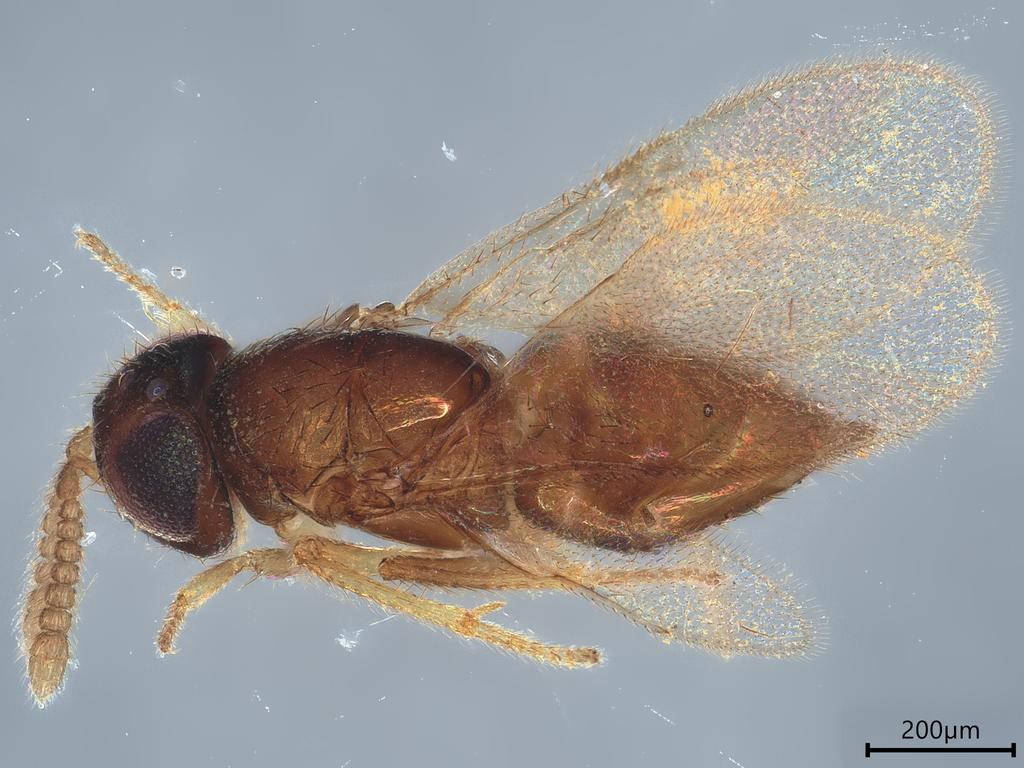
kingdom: Animalia
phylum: Arthropoda
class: Insecta
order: Hymenoptera
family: Encyrtidae
